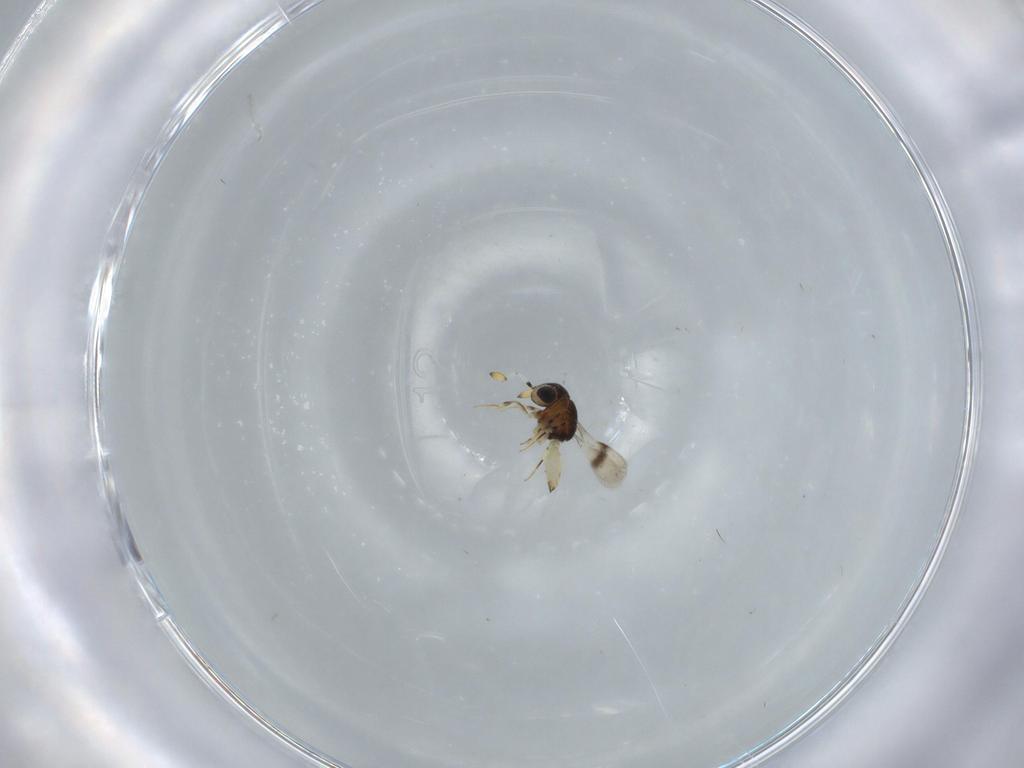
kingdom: Animalia
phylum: Arthropoda
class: Insecta
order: Hymenoptera
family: Scelionidae
